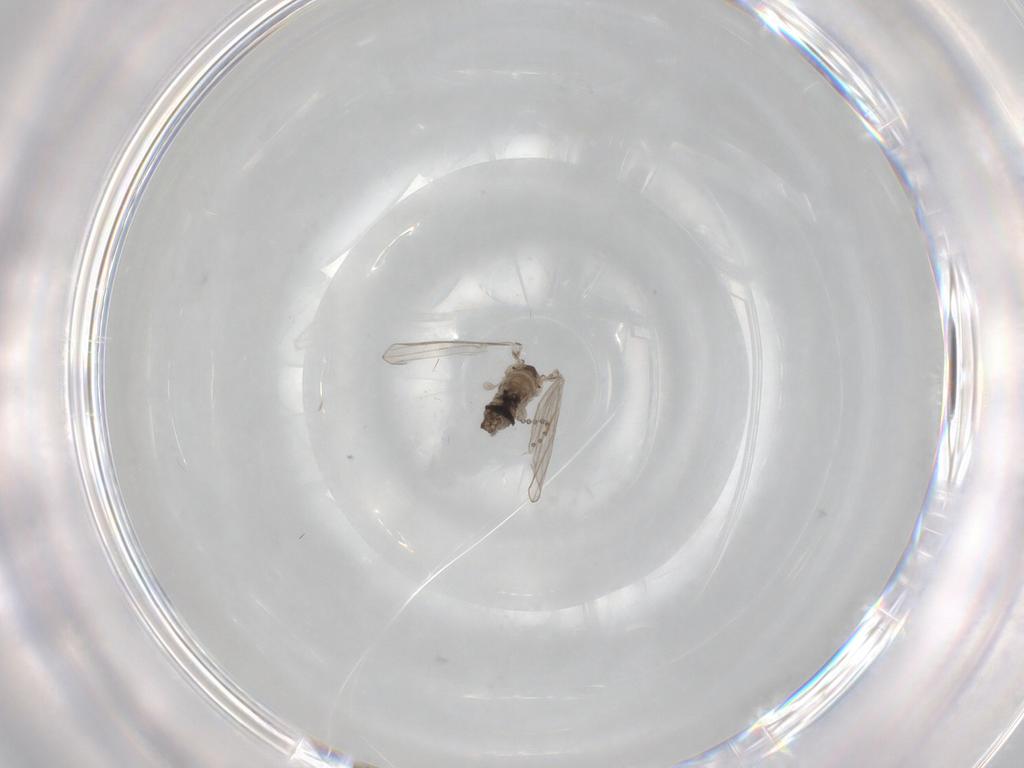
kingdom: Animalia
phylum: Arthropoda
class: Insecta
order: Diptera
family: Psychodidae
